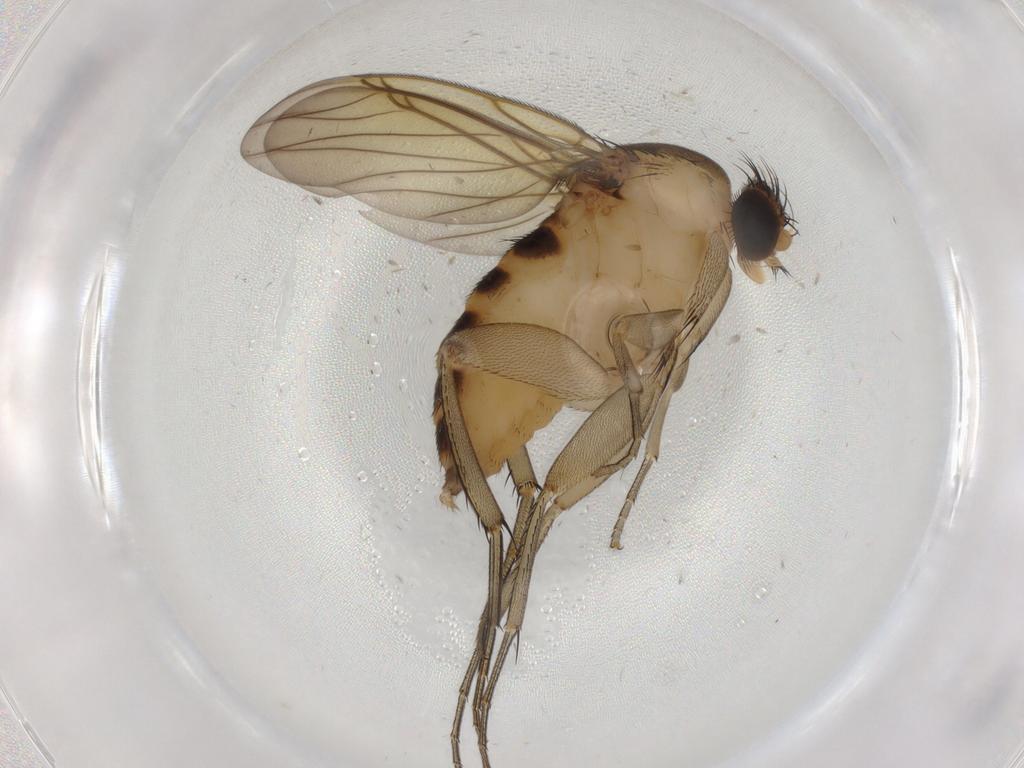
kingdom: Animalia
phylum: Arthropoda
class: Insecta
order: Diptera
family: Phoridae
